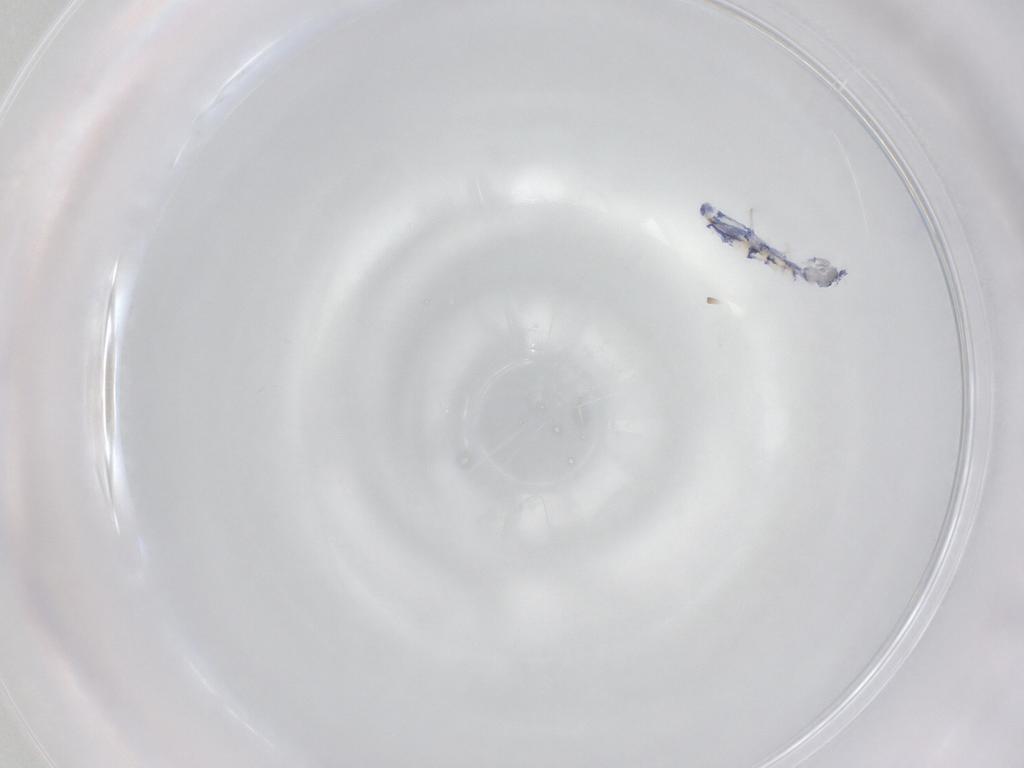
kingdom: Animalia
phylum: Arthropoda
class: Collembola
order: Entomobryomorpha
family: Entomobryidae
